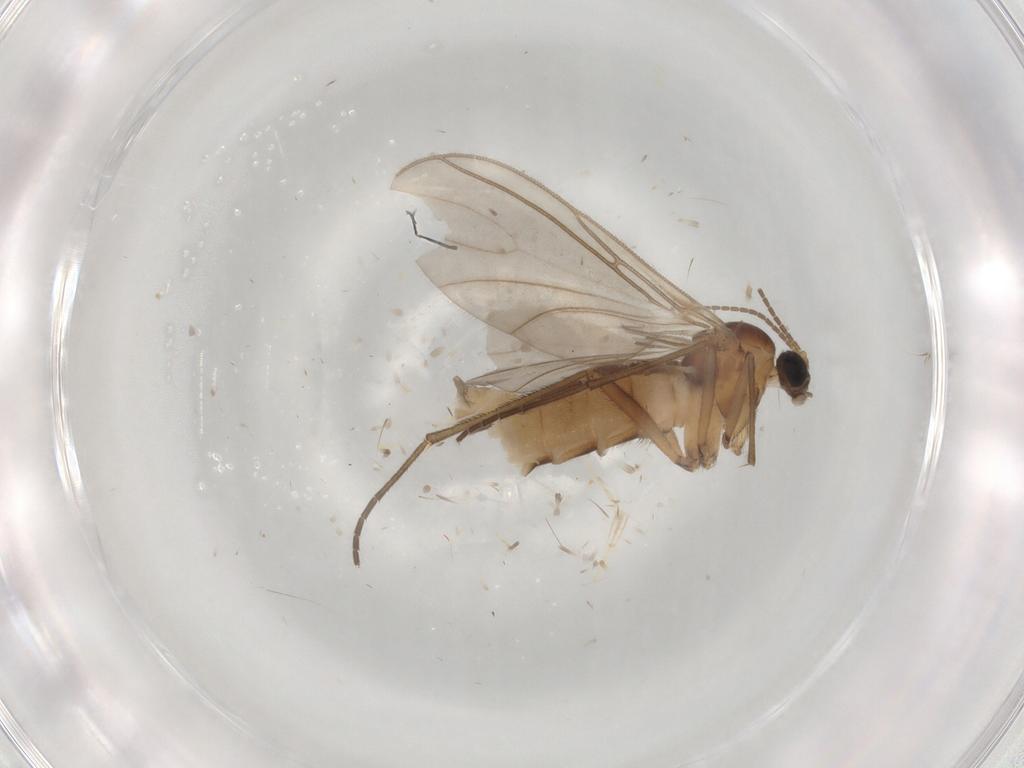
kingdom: Animalia
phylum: Arthropoda
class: Insecta
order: Diptera
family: Sciaridae
